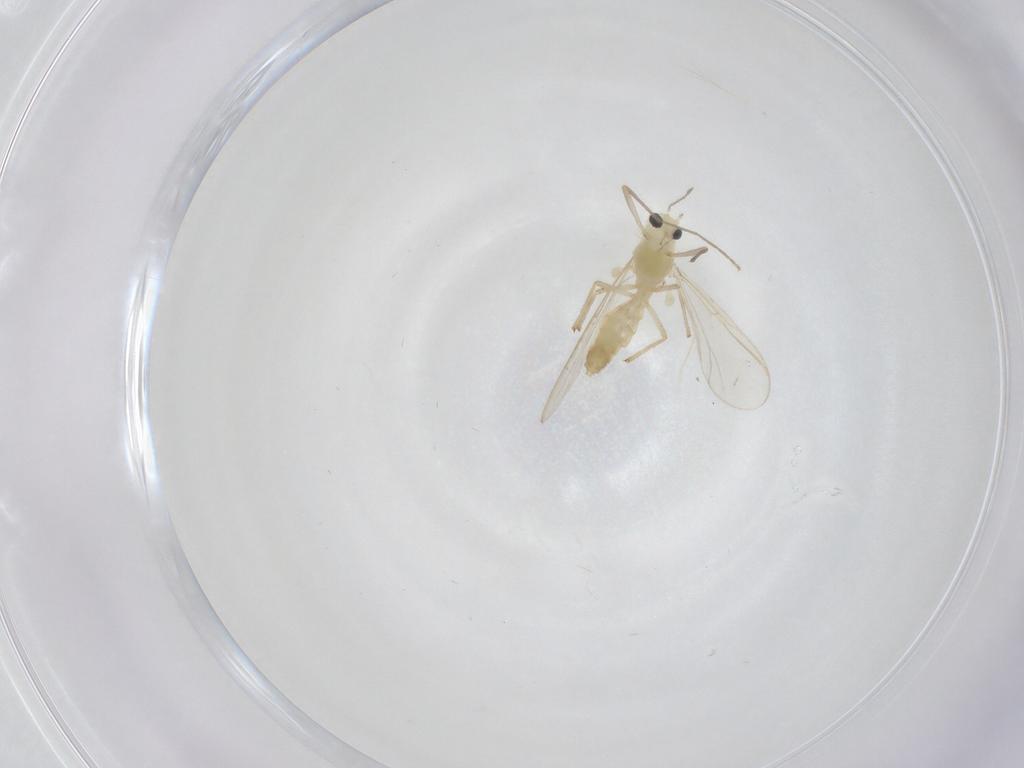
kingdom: Animalia
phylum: Arthropoda
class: Insecta
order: Diptera
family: Chironomidae
